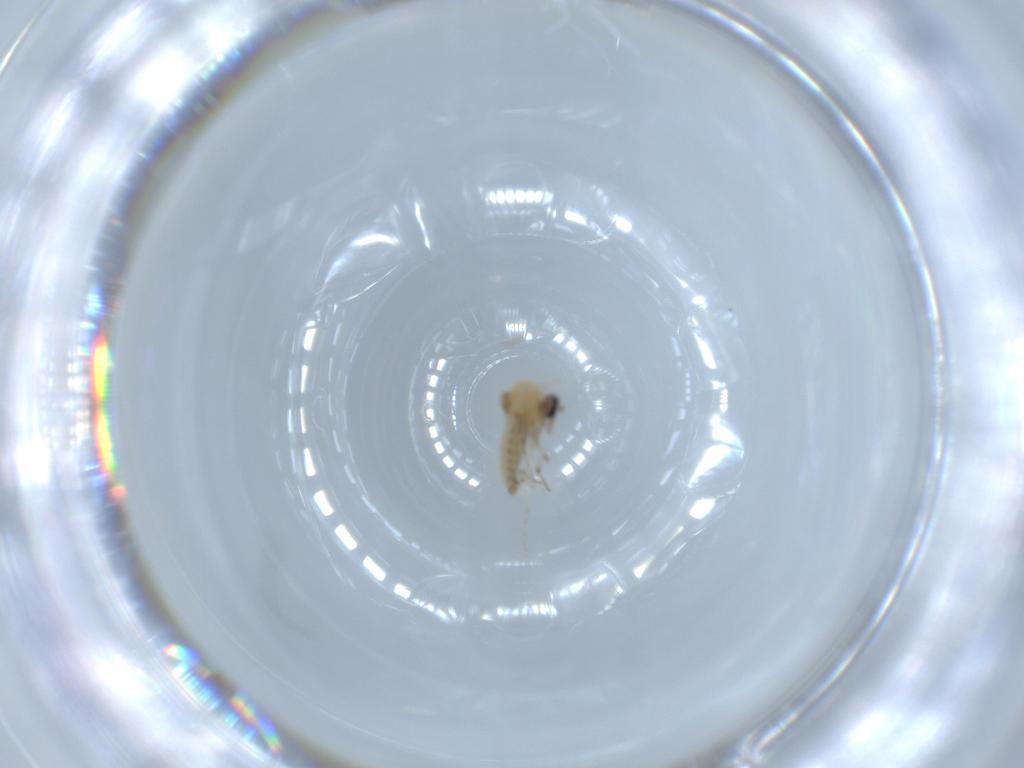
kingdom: Animalia
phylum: Arthropoda
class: Insecta
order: Diptera
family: Ceratopogonidae
